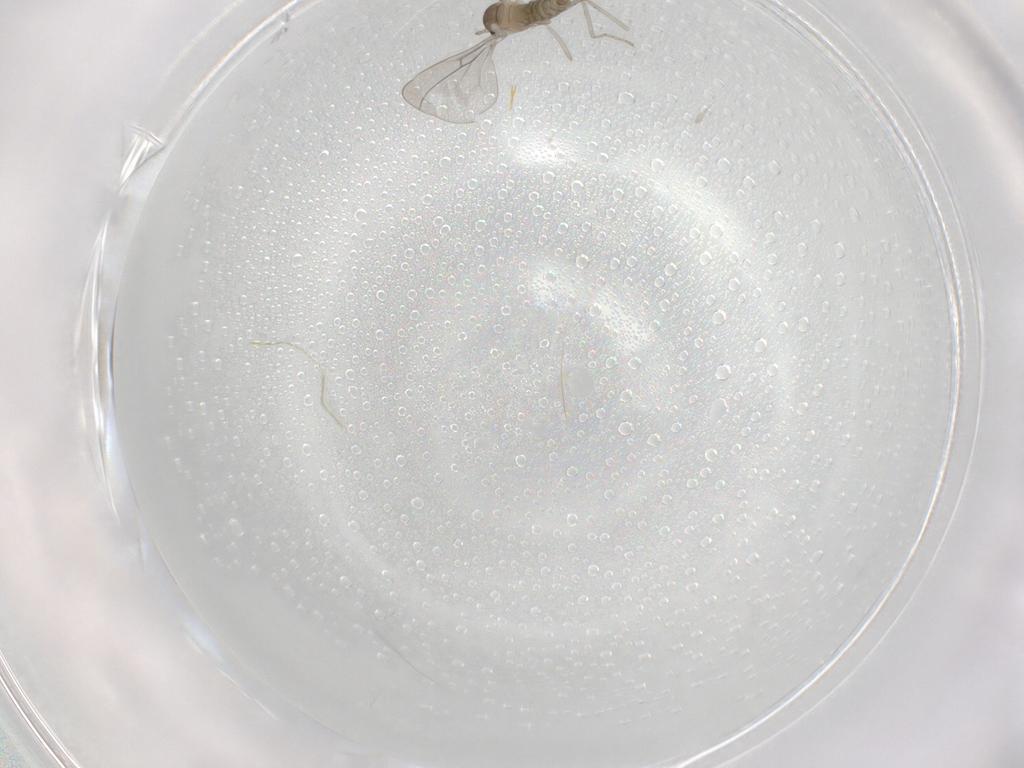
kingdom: Animalia
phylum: Arthropoda
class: Insecta
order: Diptera
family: Cecidomyiidae
